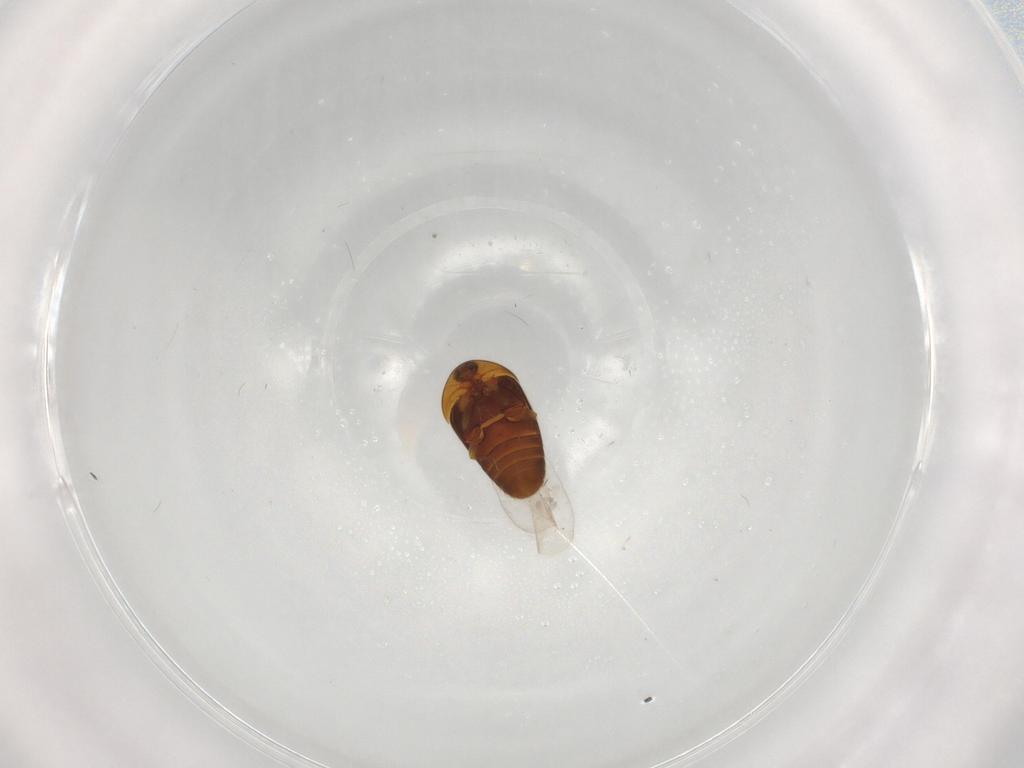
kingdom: Animalia
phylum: Arthropoda
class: Insecta
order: Coleoptera
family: Corylophidae
